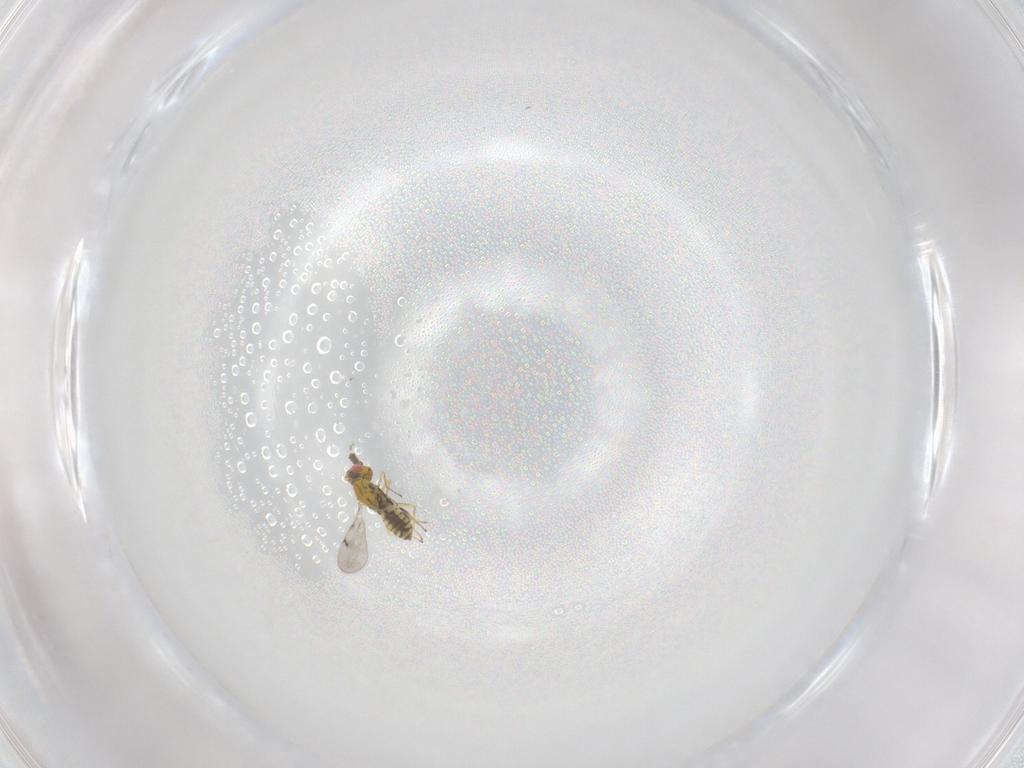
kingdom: Animalia
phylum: Arthropoda
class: Insecta
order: Hymenoptera
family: Eulophidae
